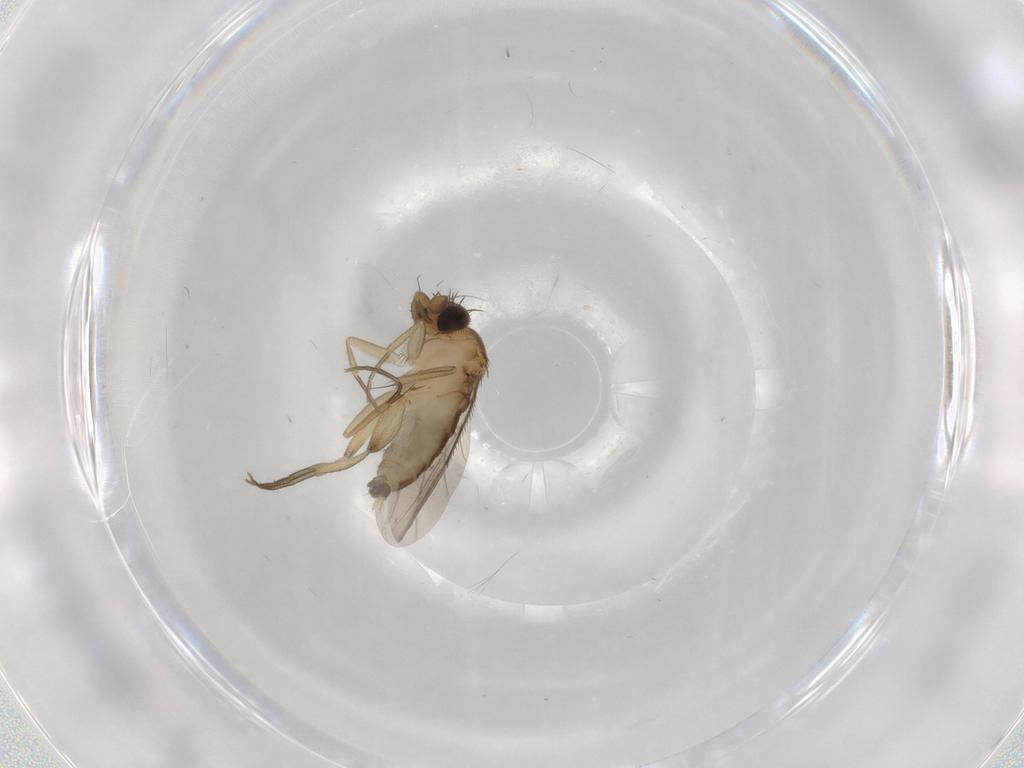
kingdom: Animalia
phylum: Arthropoda
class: Insecta
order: Diptera
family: Phoridae
